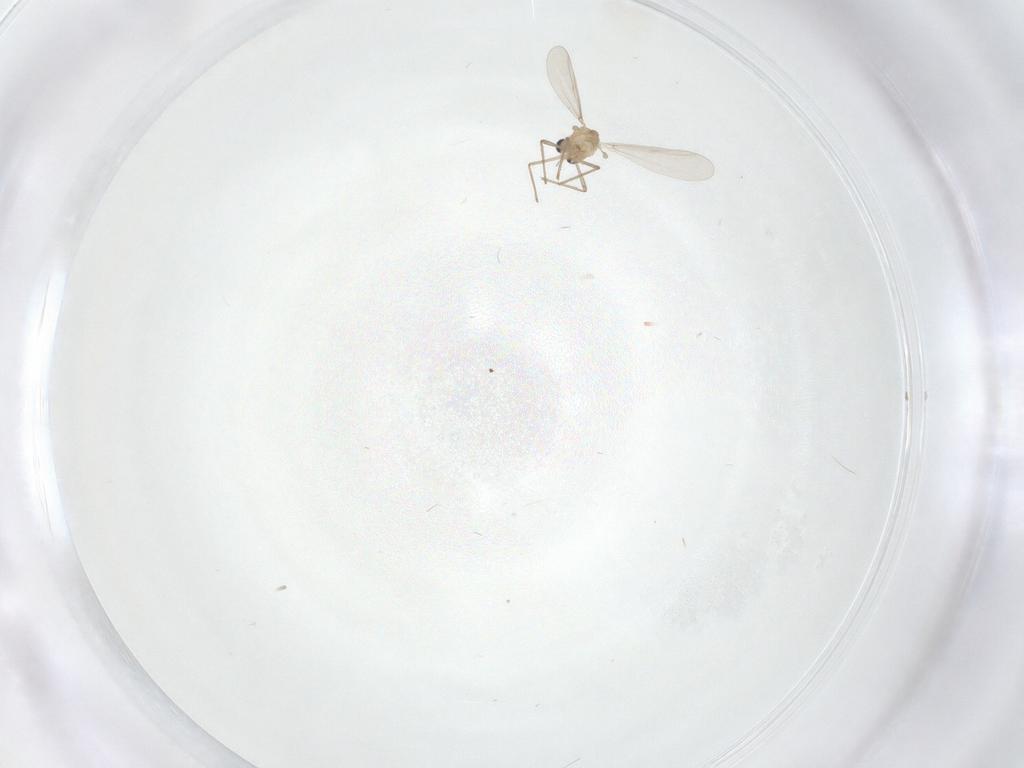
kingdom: Animalia
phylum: Arthropoda
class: Insecta
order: Diptera
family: Chironomidae
